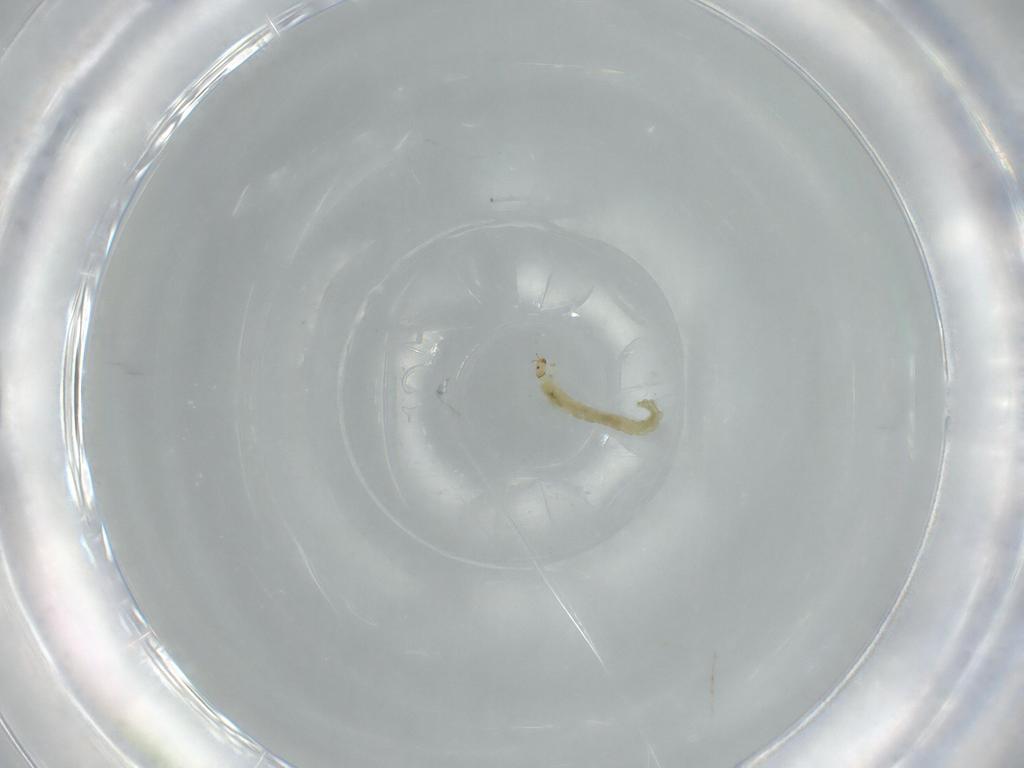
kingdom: Animalia
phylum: Arthropoda
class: Insecta
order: Diptera
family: Chironomidae
